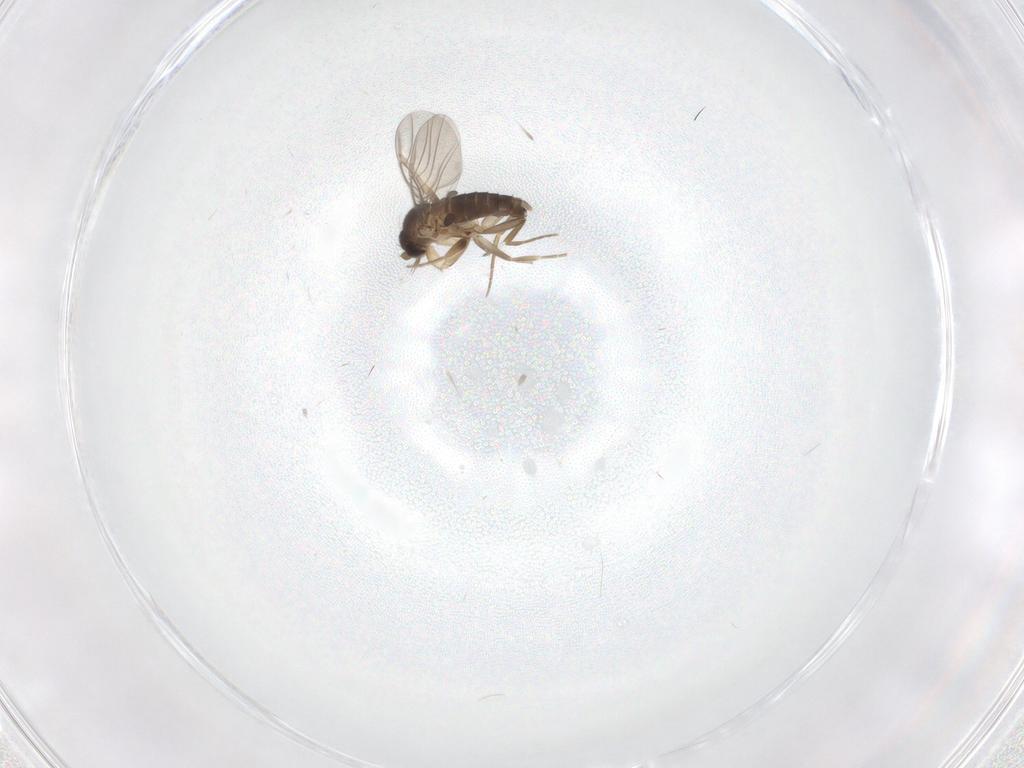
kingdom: Animalia
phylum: Arthropoda
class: Insecta
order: Diptera
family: Phoridae
